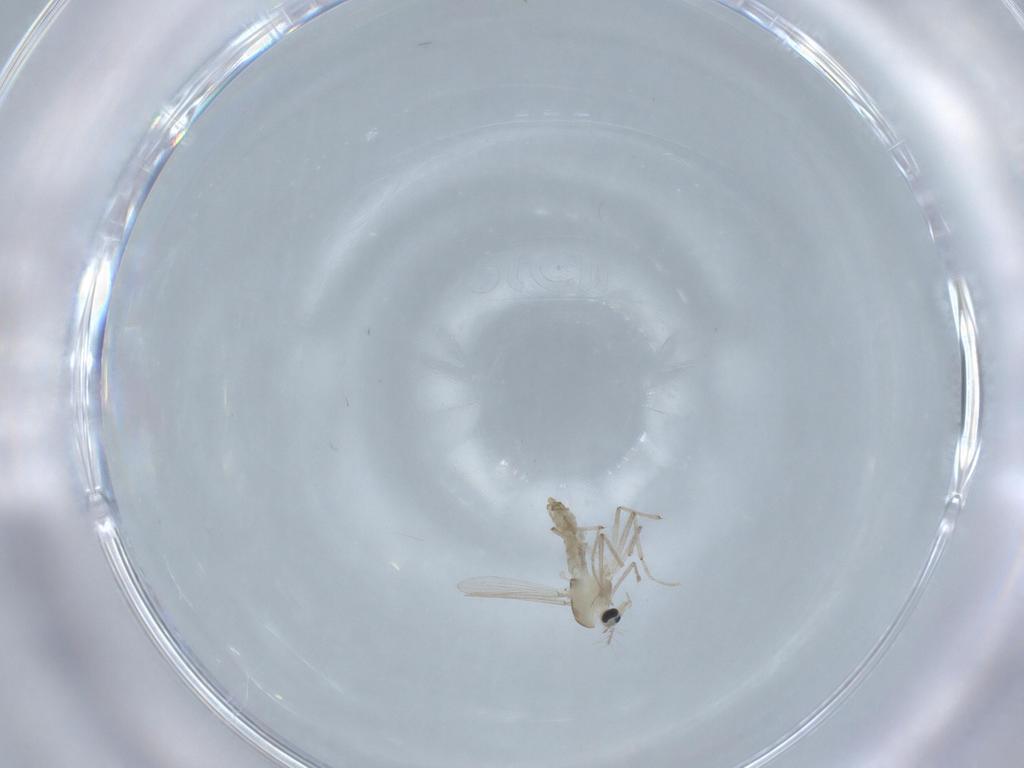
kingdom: Animalia
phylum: Arthropoda
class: Insecta
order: Diptera
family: Chironomidae
